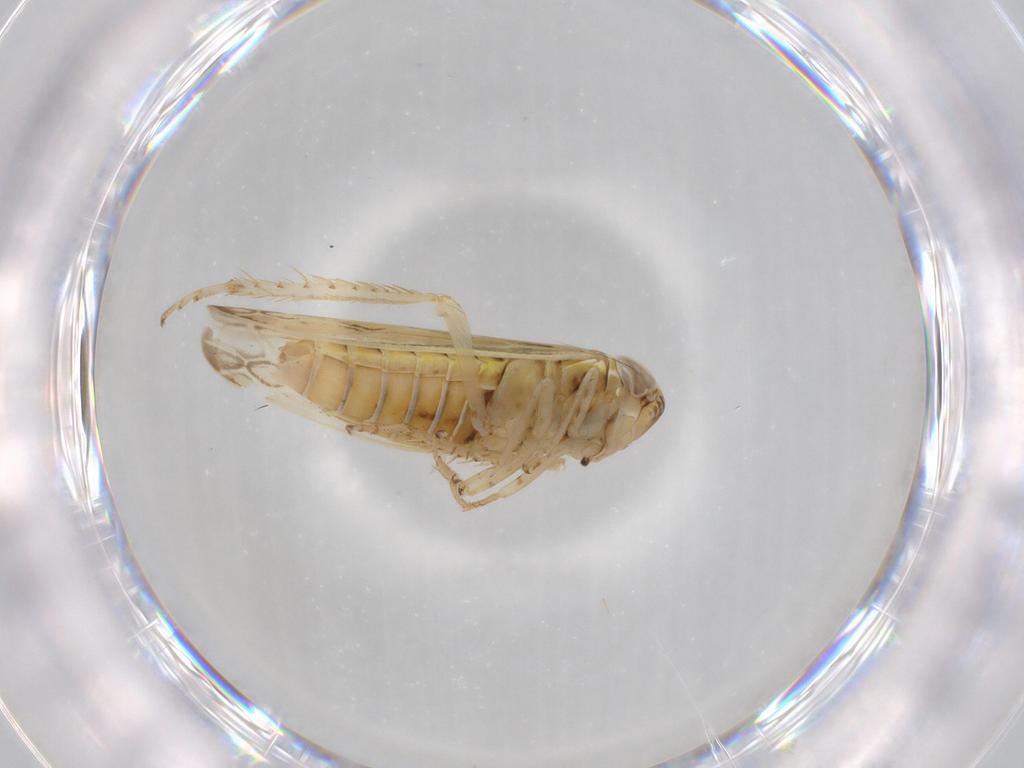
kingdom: Animalia
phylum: Arthropoda
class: Insecta
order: Hemiptera
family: Cicadellidae
